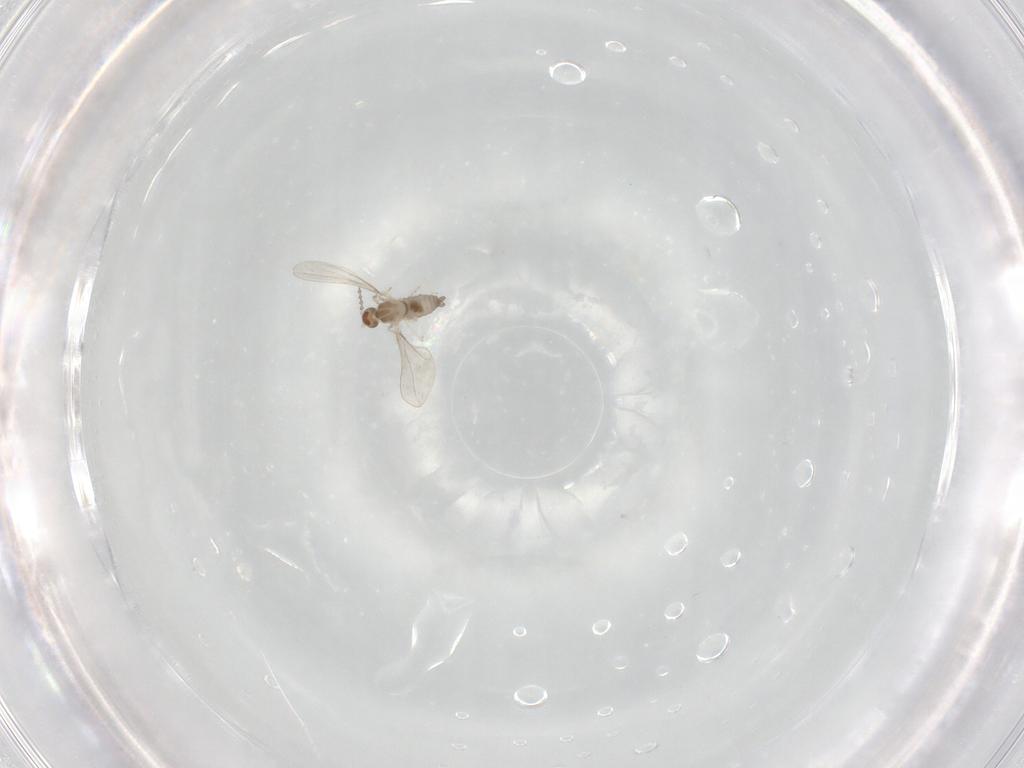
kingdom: Animalia
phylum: Arthropoda
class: Insecta
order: Diptera
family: Cecidomyiidae
